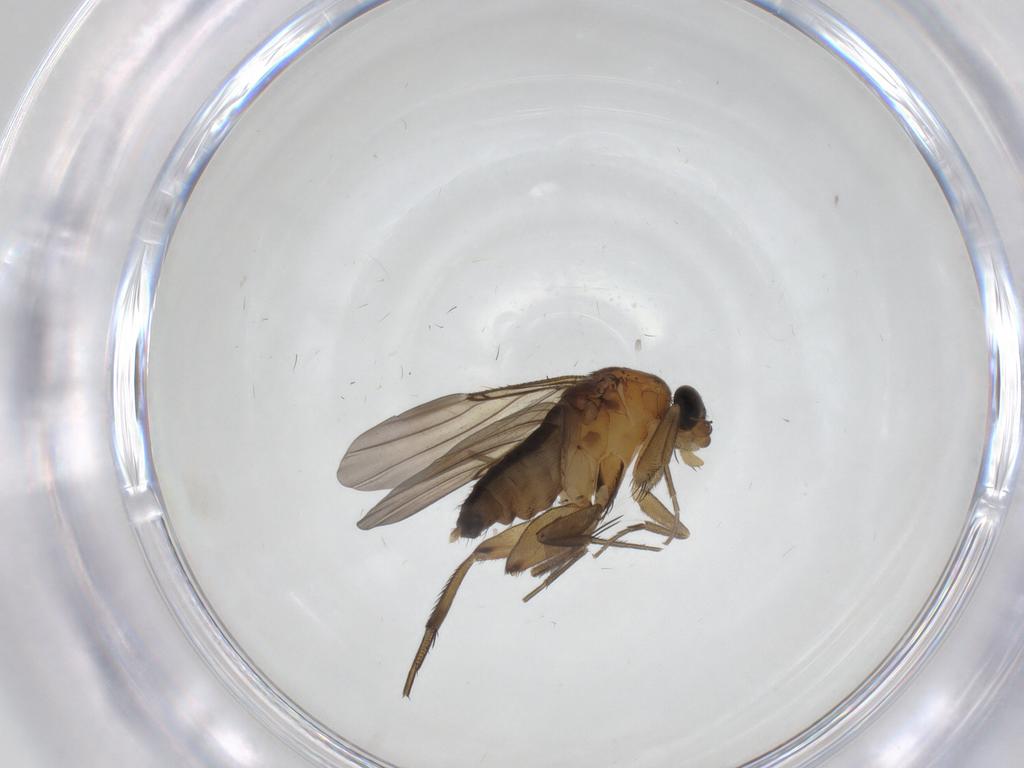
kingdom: Animalia
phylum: Arthropoda
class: Insecta
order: Diptera
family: Phoridae
